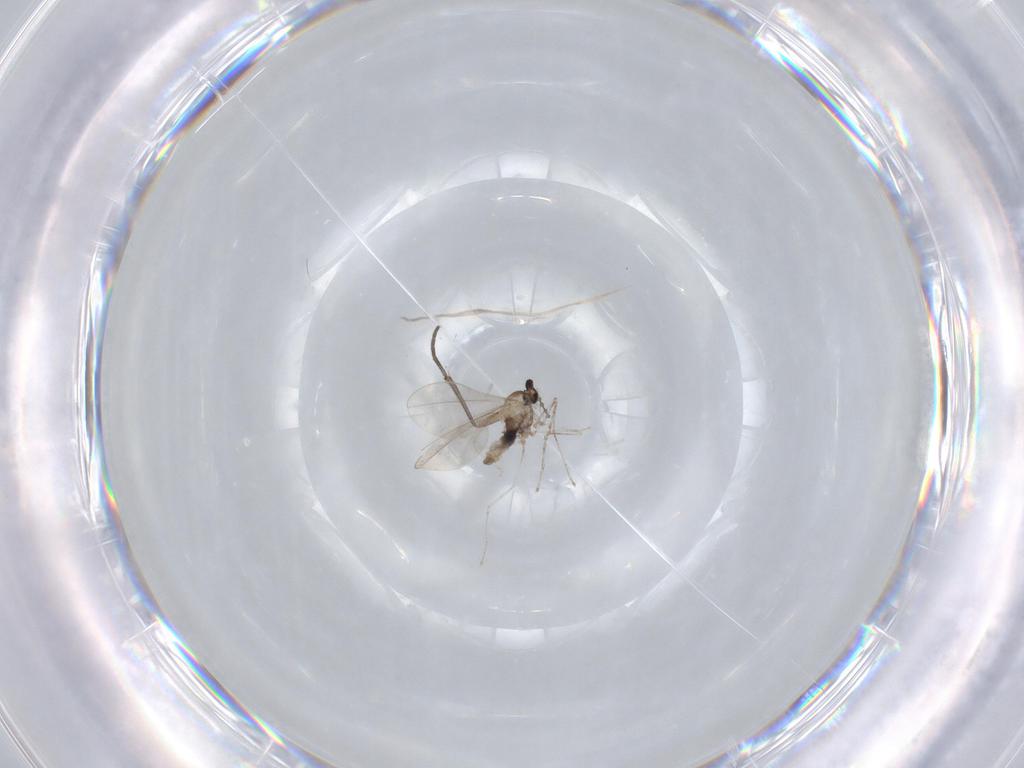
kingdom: Animalia
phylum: Arthropoda
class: Insecta
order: Diptera
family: Cecidomyiidae
